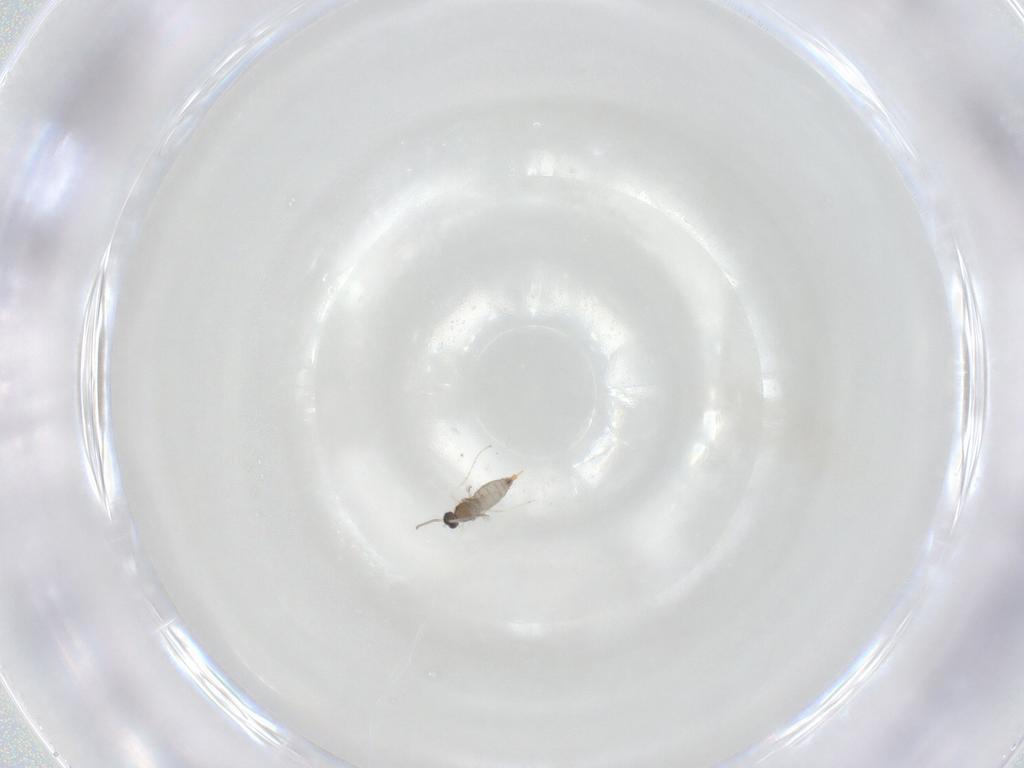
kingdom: Animalia
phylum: Arthropoda
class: Insecta
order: Diptera
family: Cecidomyiidae
